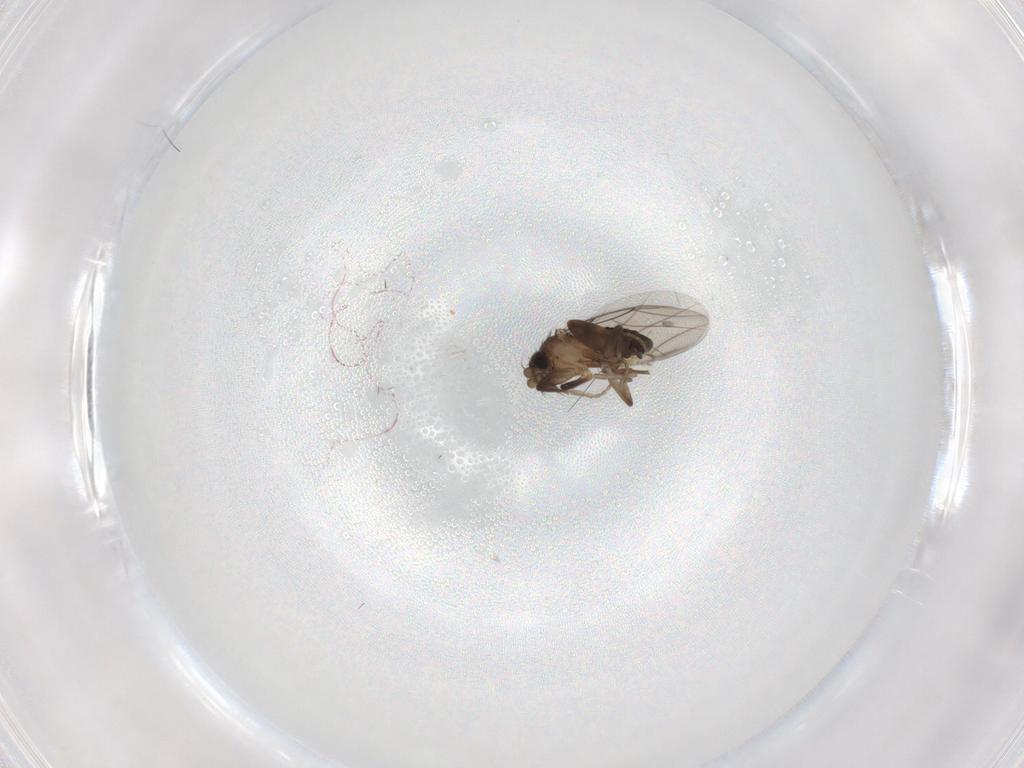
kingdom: Animalia
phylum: Arthropoda
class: Insecta
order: Diptera
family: Phoridae
